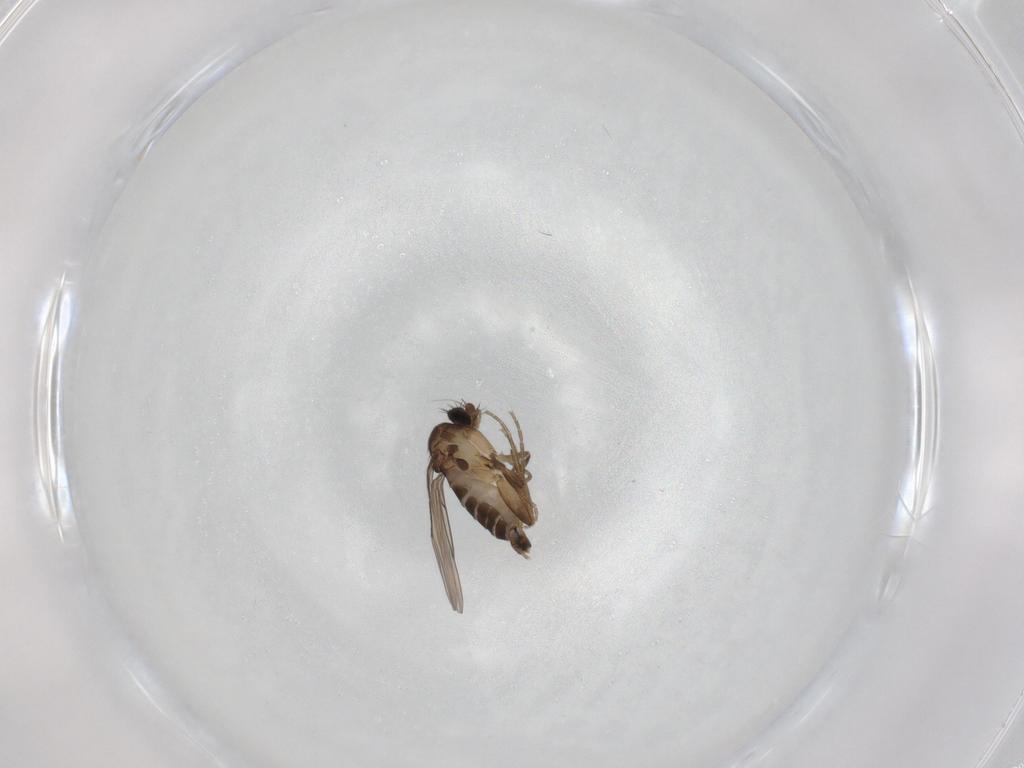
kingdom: Animalia
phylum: Arthropoda
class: Insecta
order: Diptera
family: Phoridae
